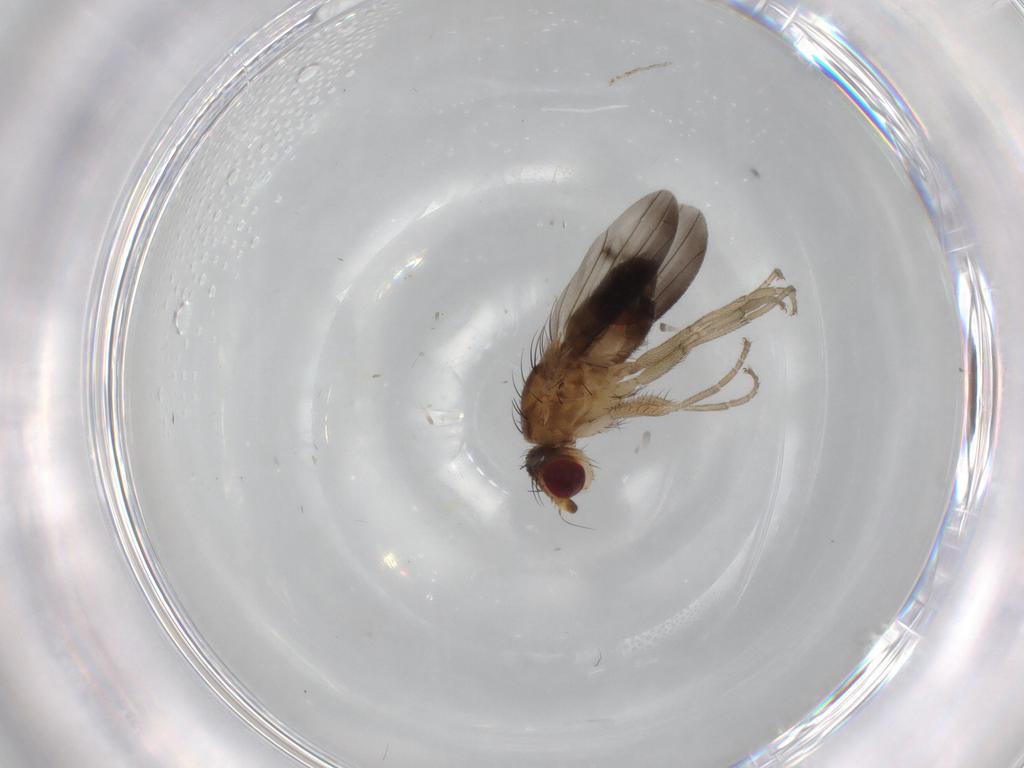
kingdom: Animalia
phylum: Arthropoda
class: Insecta
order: Diptera
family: Heleomyzidae
